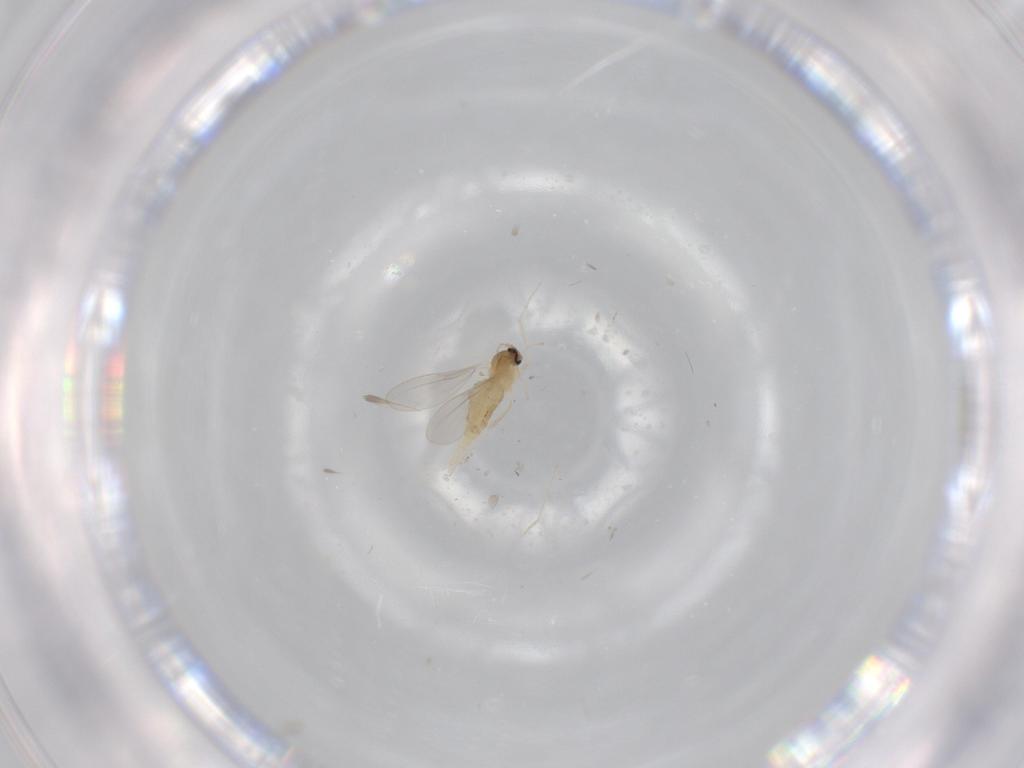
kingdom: Animalia
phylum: Arthropoda
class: Insecta
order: Diptera
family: Cecidomyiidae
